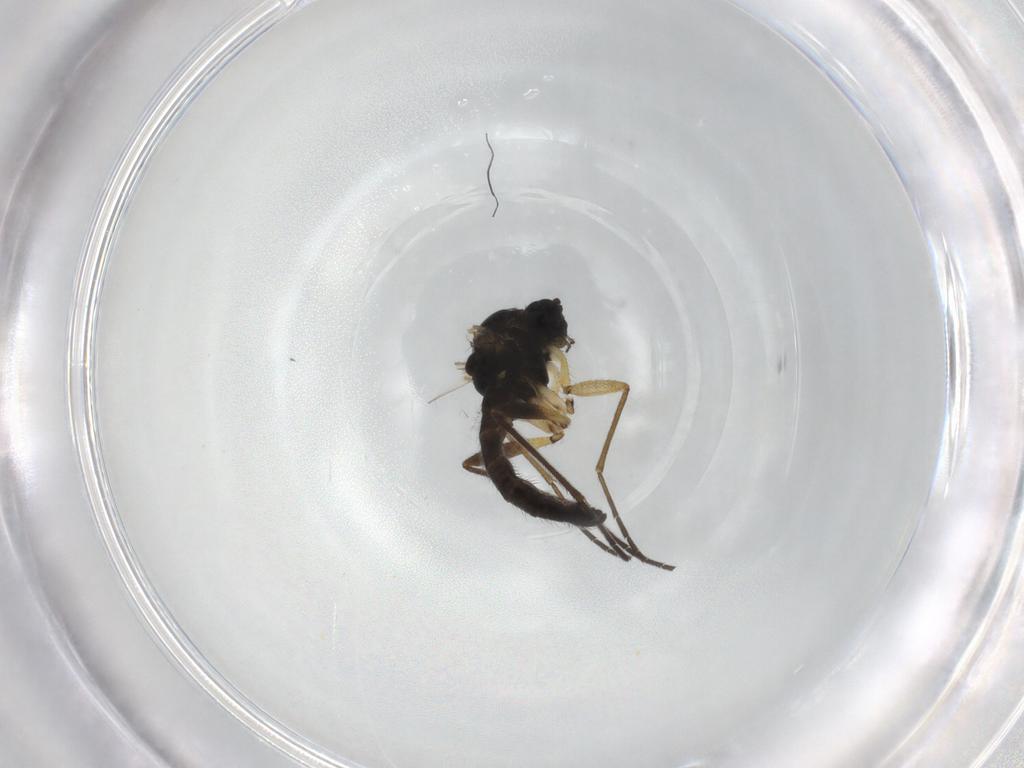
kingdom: Animalia
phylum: Arthropoda
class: Insecta
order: Diptera
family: Sciaridae
